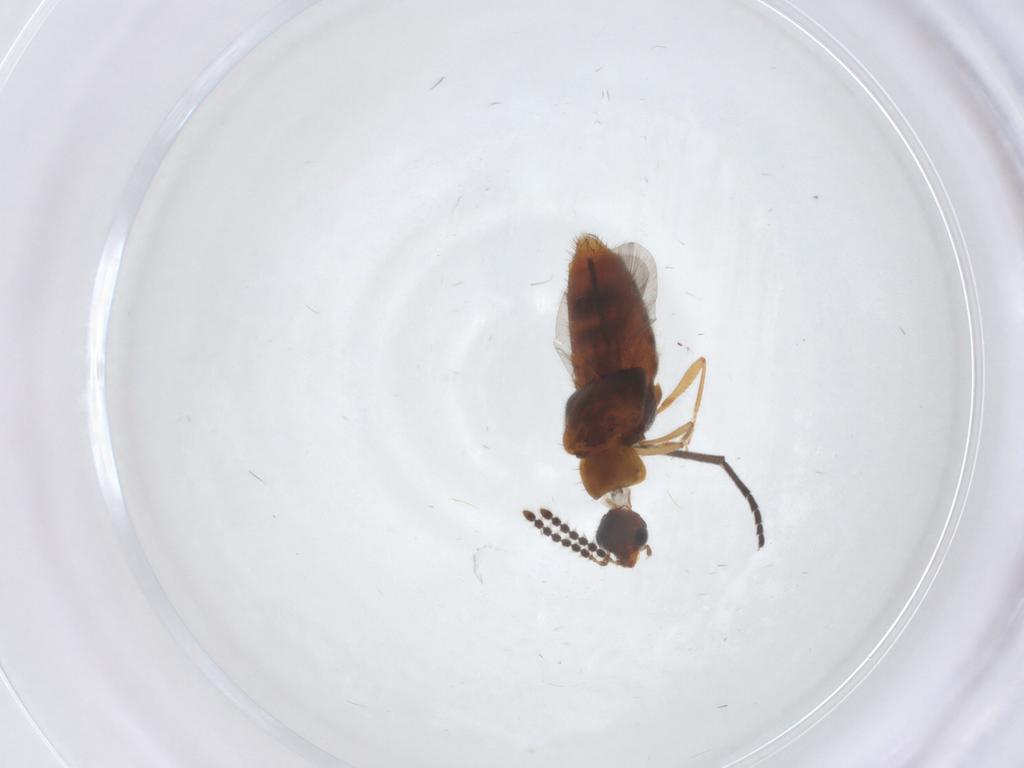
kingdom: Animalia
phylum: Arthropoda
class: Insecta
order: Coleoptera
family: Staphylinidae
